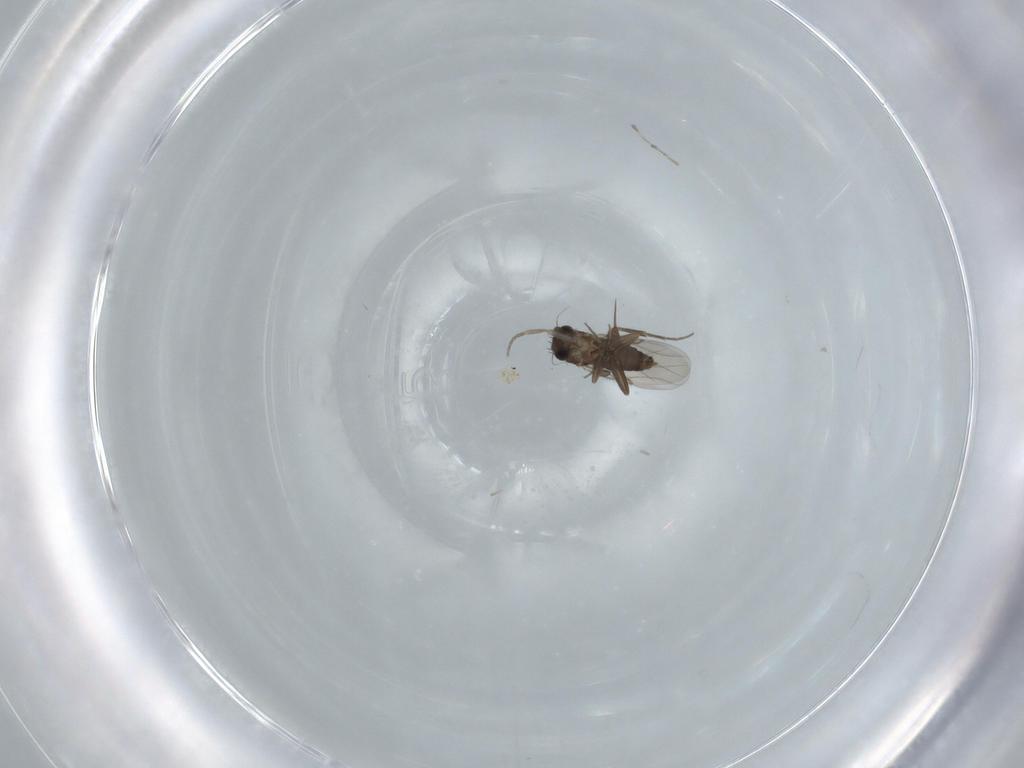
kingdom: Animalia
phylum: Arthropoda
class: Insecta
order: Diptera
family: Phoridae
